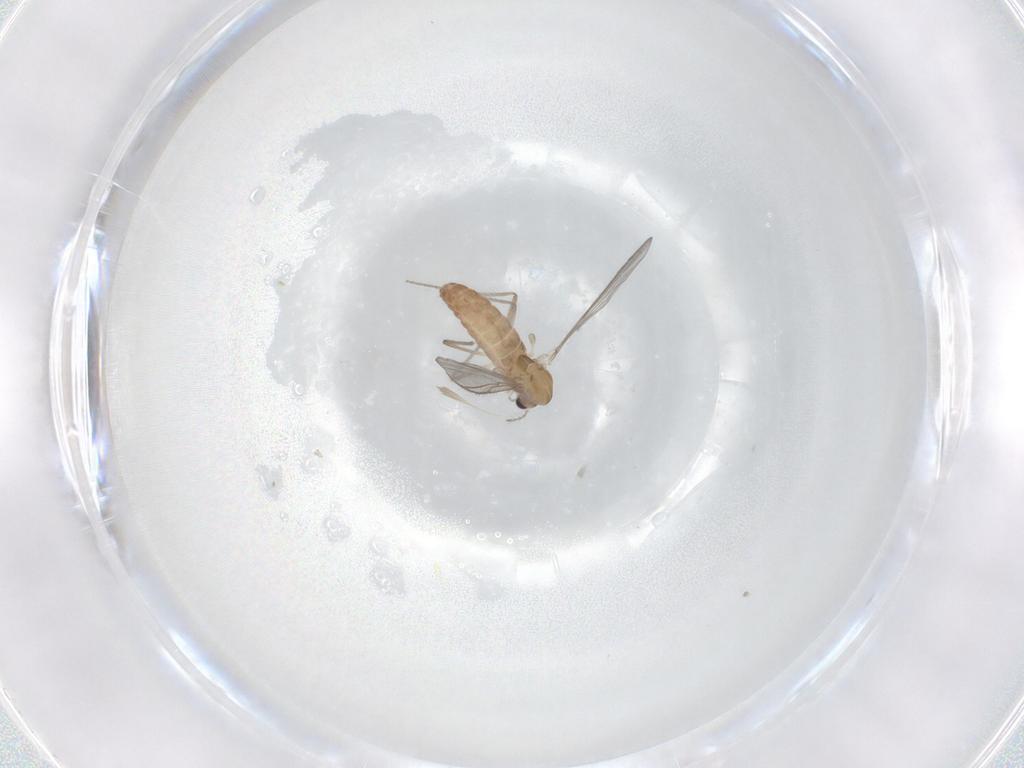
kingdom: Animalia
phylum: Arthropoda
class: Insecta
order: Diptera
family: Chironomidae
